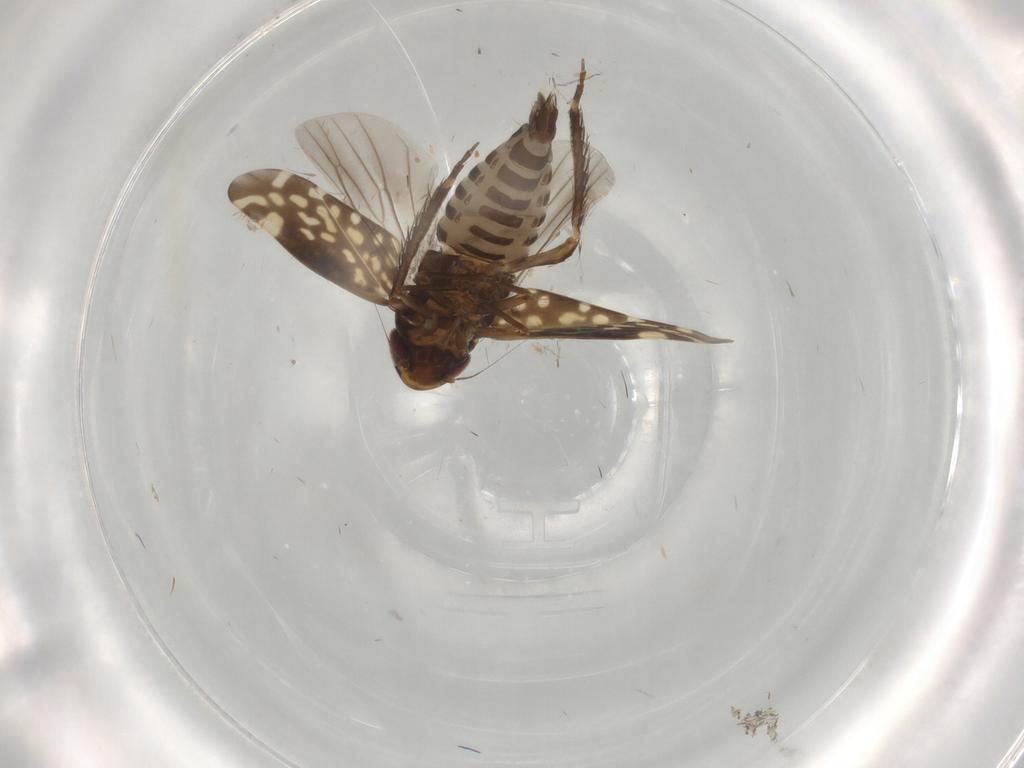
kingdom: Animalia
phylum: Arthropoda
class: Insecta
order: Hemiptera
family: Cicadellidae
